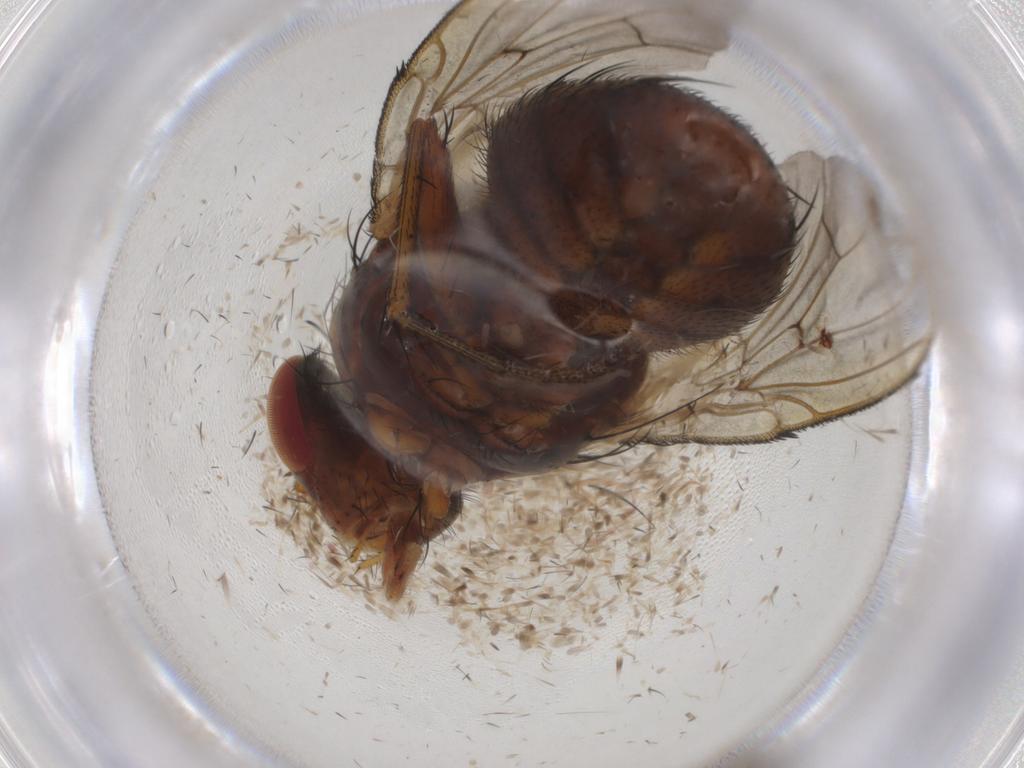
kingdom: Animalia
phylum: Arthropoda
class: Insecta
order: Diptera
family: Tachinidae
